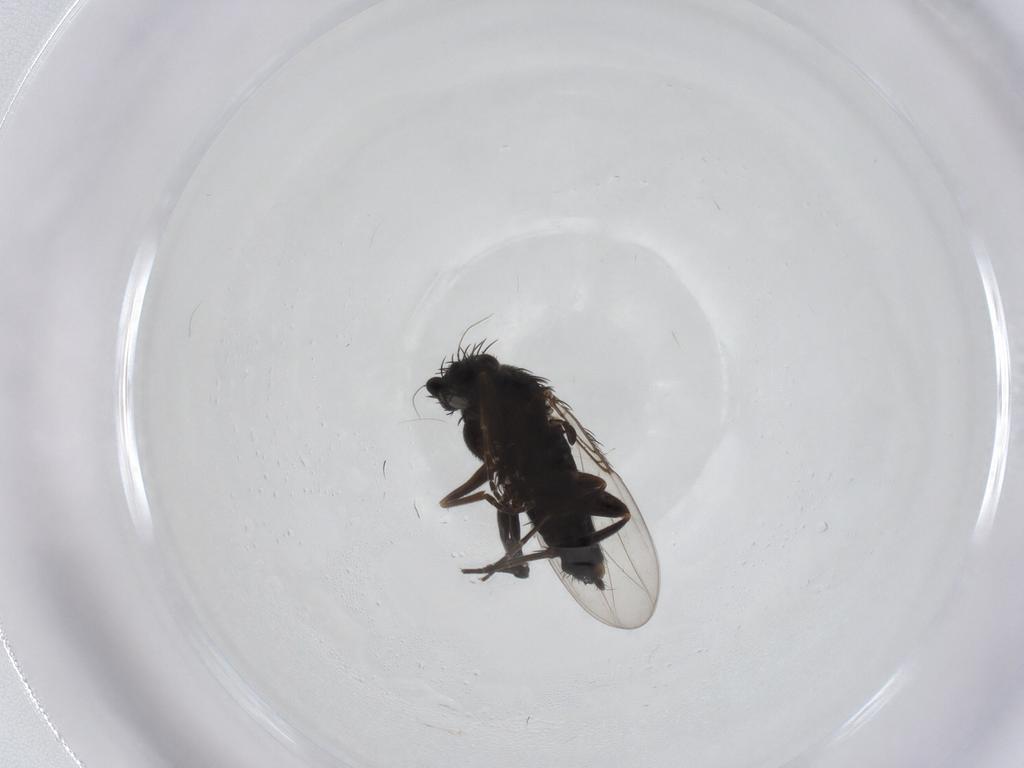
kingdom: Animalia
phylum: Arthropoda
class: Insecta
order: Diptera
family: Phoridae
